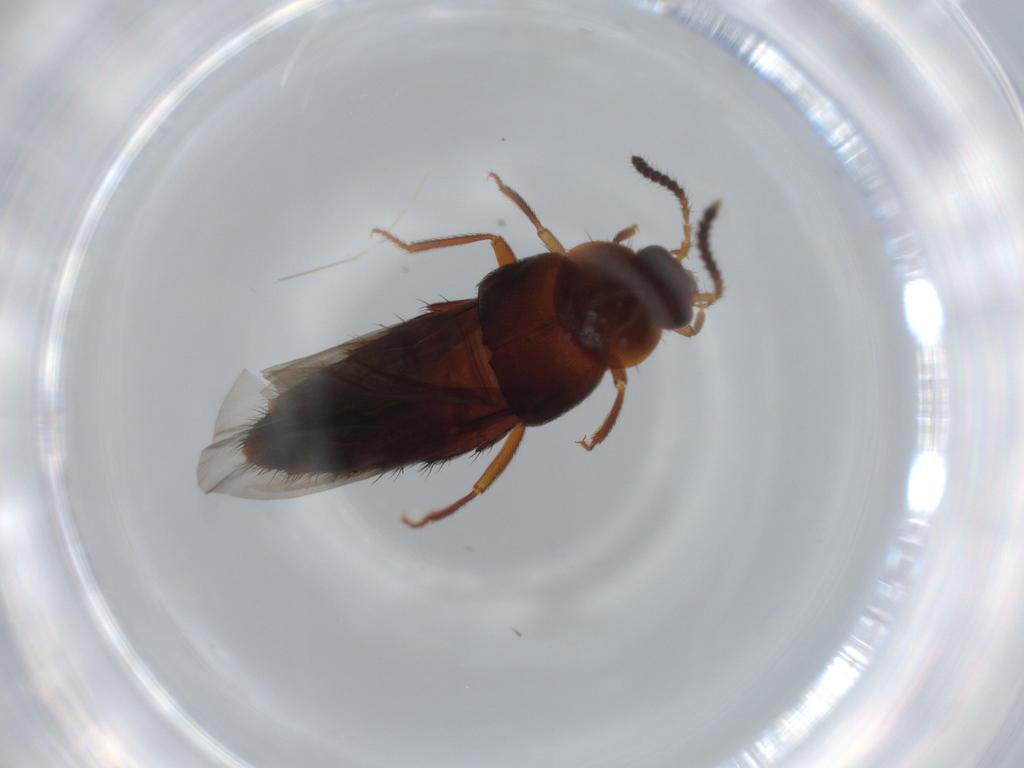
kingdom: Animalia
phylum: Arthropoda
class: Insecta
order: Coleoptera
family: Staphylinidae
